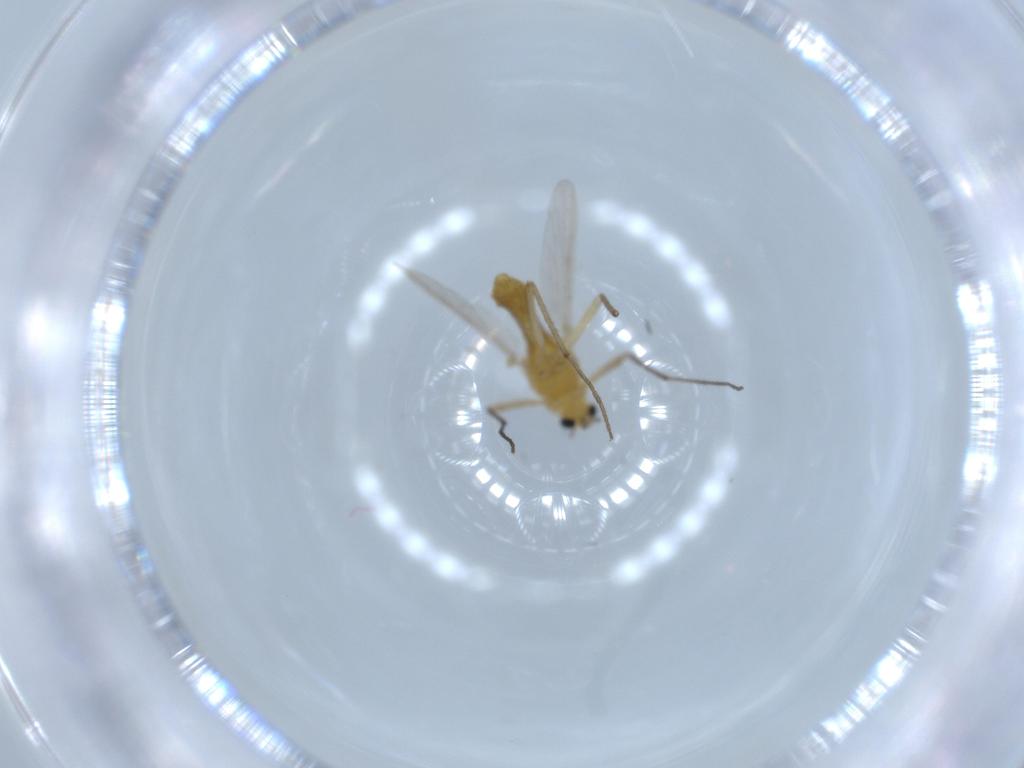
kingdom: Animalia
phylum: Arthropoda
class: Insecta
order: Diptera
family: Chironomidae
